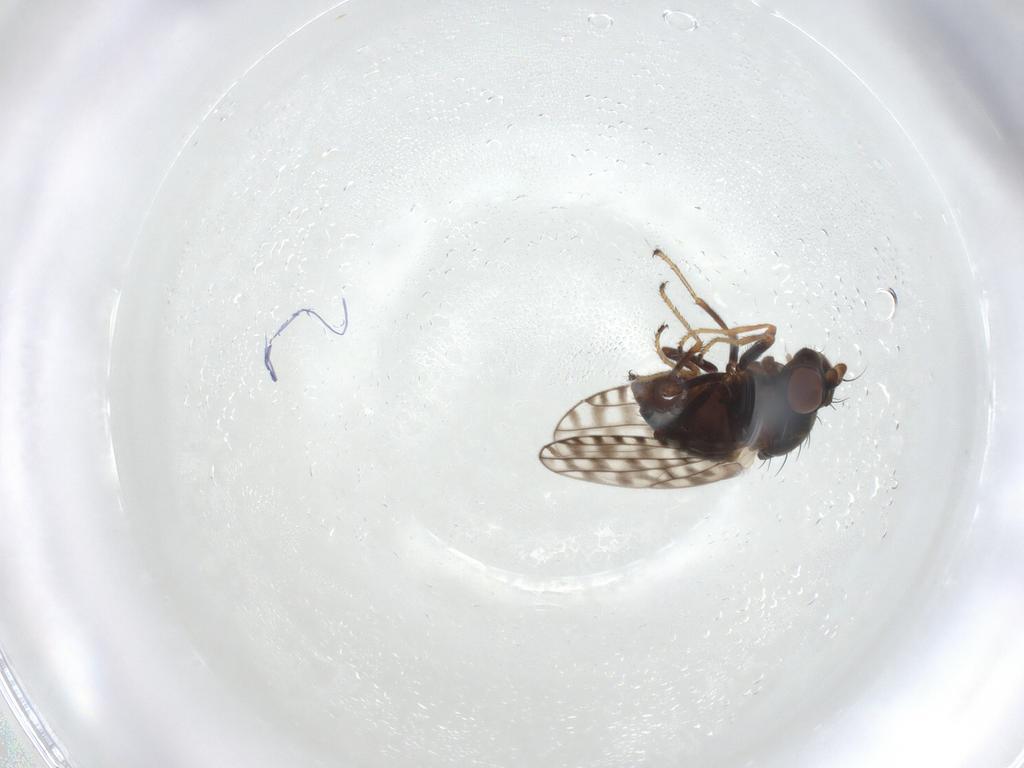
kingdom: Animalia
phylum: Arthropoda
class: Insecta
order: Diptera
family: Ephydridae
